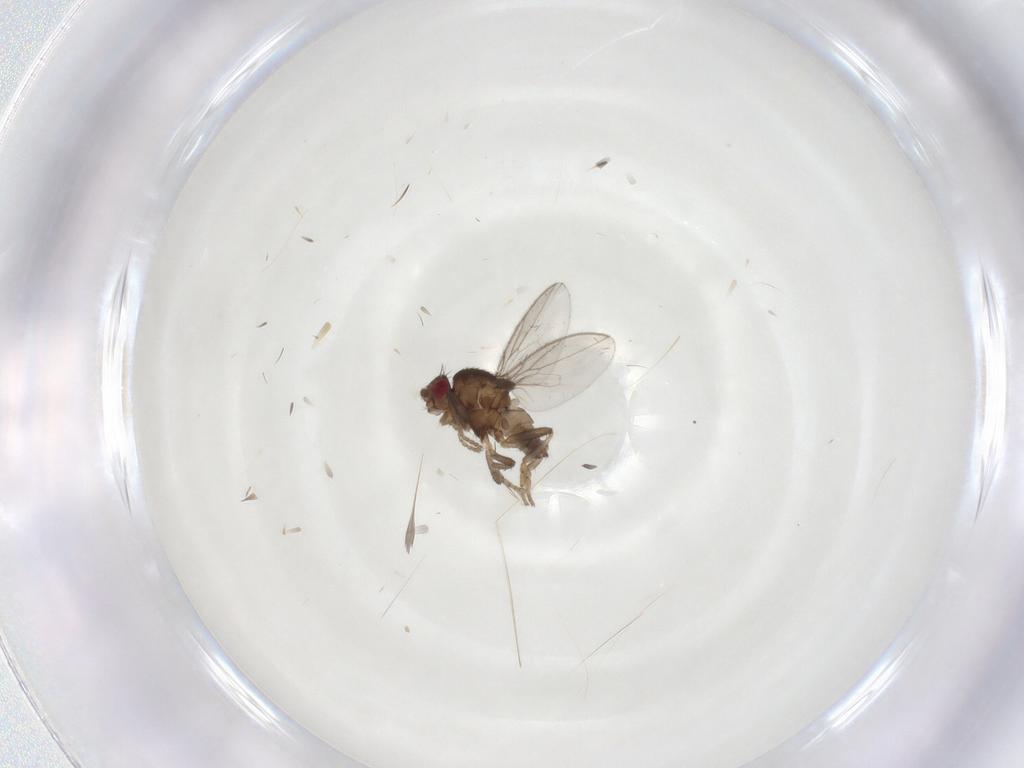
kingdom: Animalia
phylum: Arthropoda
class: Insecta
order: Diptera
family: Sphaeroceridae
